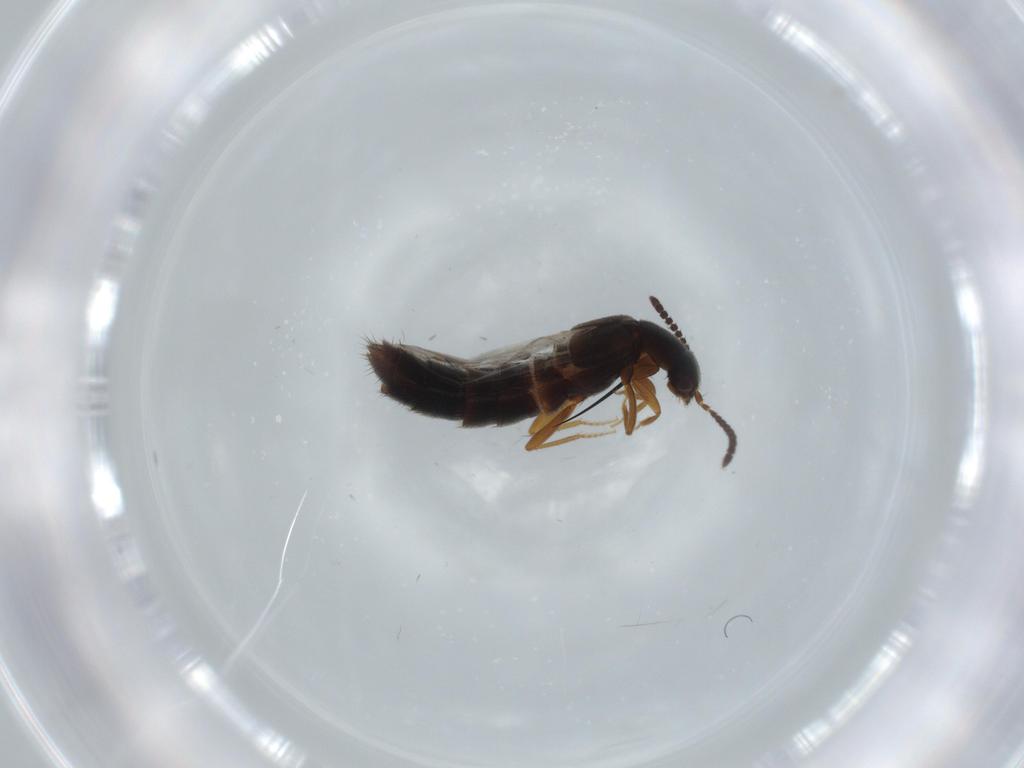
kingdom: Animalia
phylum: Arthropoda
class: Insecta
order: Coleoptera
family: Elateridae
